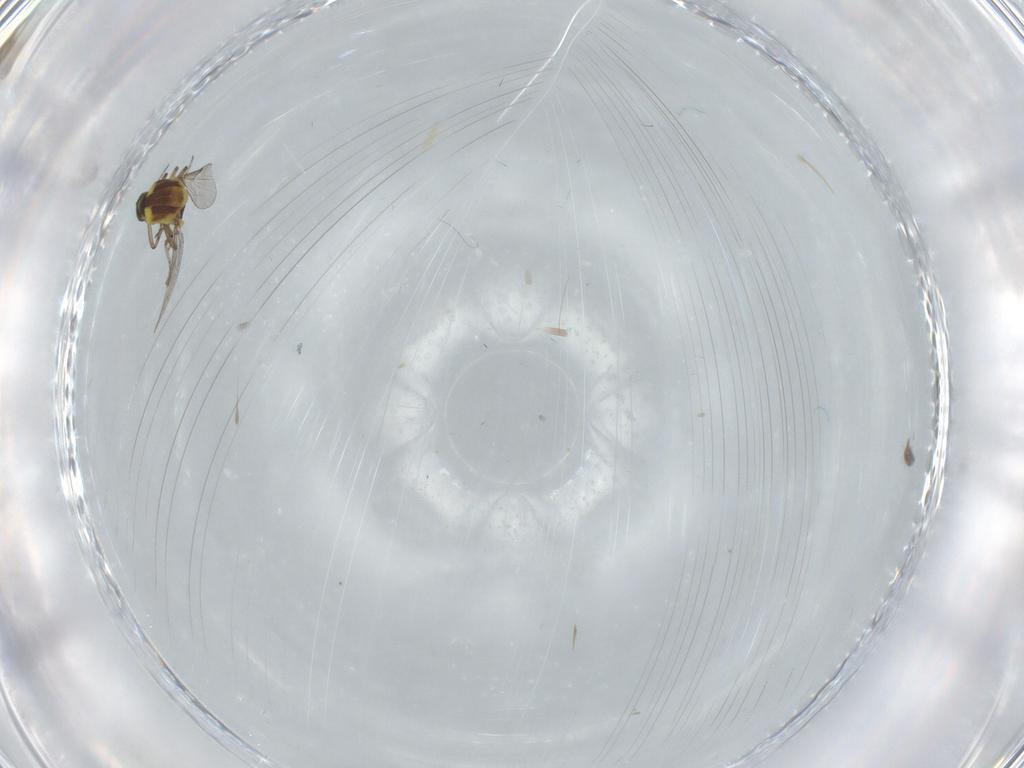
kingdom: Animalia
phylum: Arthropoda
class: Insecta
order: Diptera
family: Ceratopogonidae
